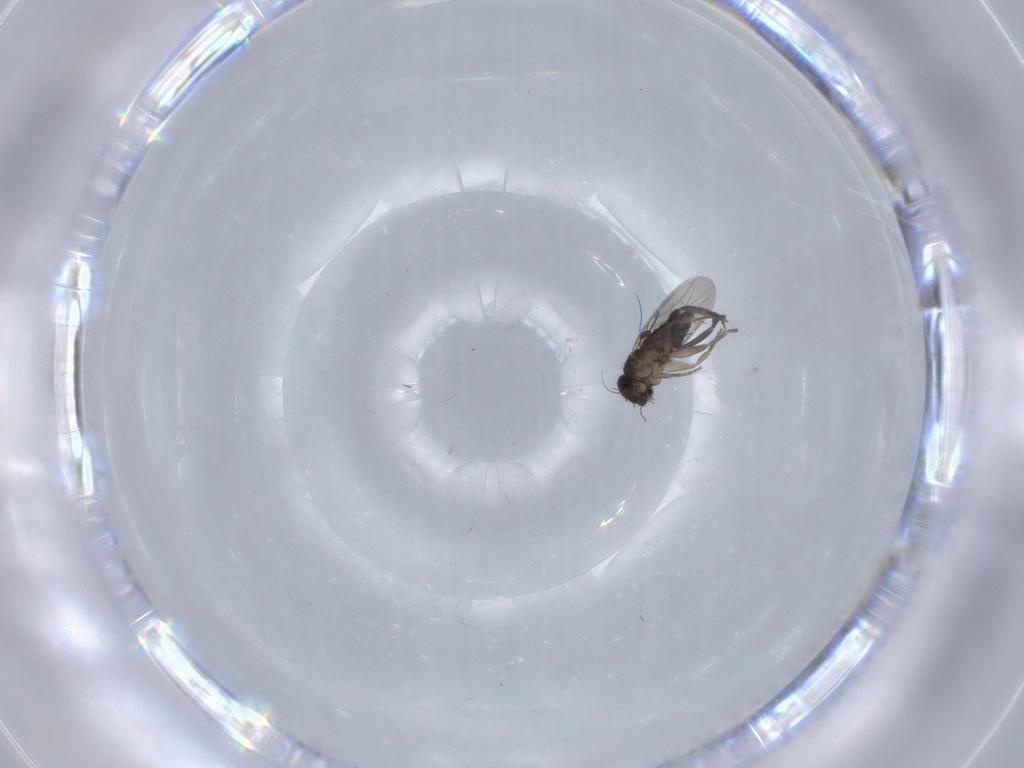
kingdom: Animalia
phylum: Arthropoda
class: Insecta
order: Diptera
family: Phoridae
